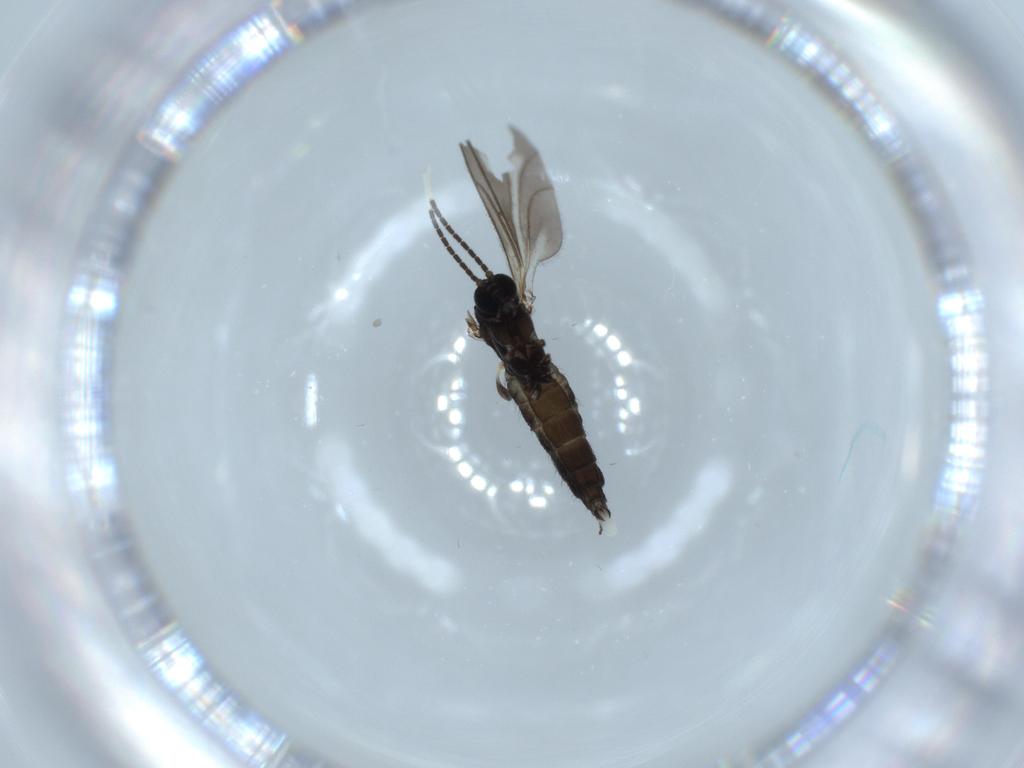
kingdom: Animalia
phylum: Arthropoda
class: Insecta
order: Diptera
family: Sciaridae
